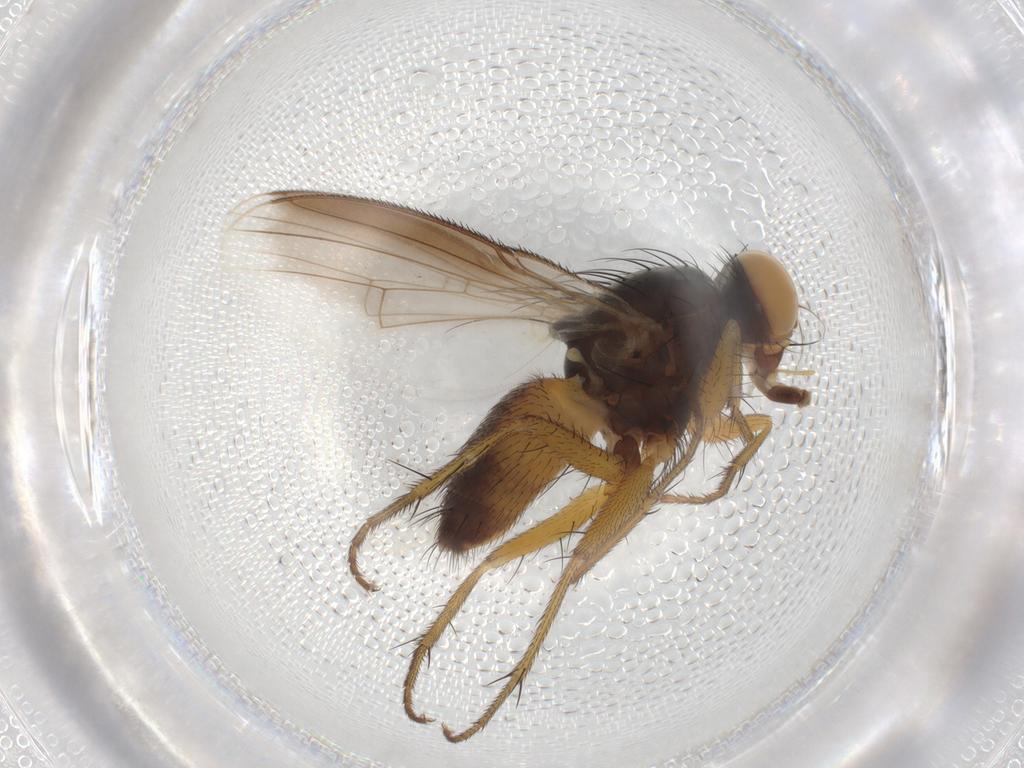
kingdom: Animalia
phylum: Arthropoda
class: Insecta
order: Diptera
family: Muscidae
